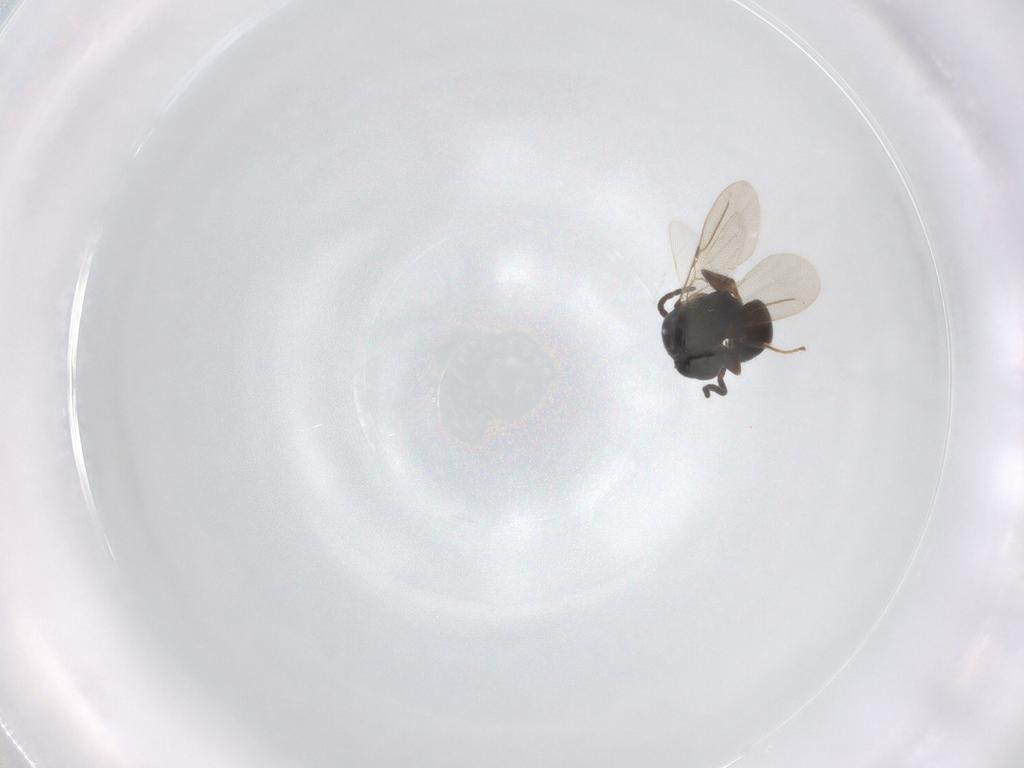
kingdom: Animalia
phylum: Arthropoda
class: Insecta
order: Hymenoptera
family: Bethylidae
